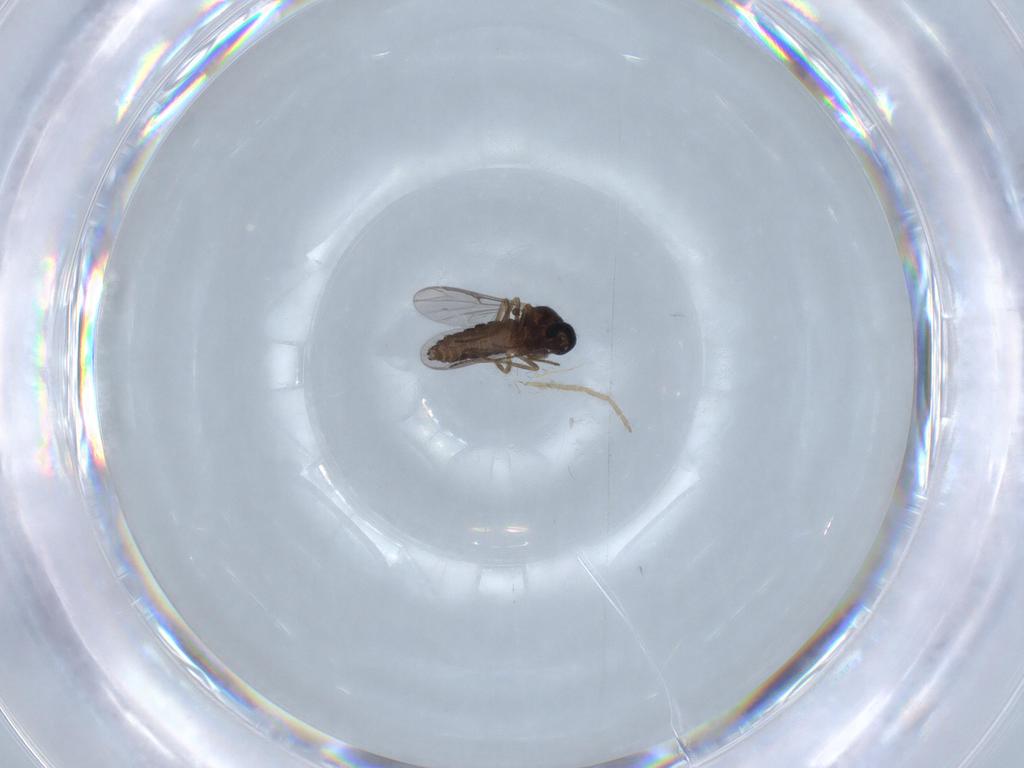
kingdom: Animalia
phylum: Arthropoda
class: Insecta
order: Diptera
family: Ceratopogonidae
